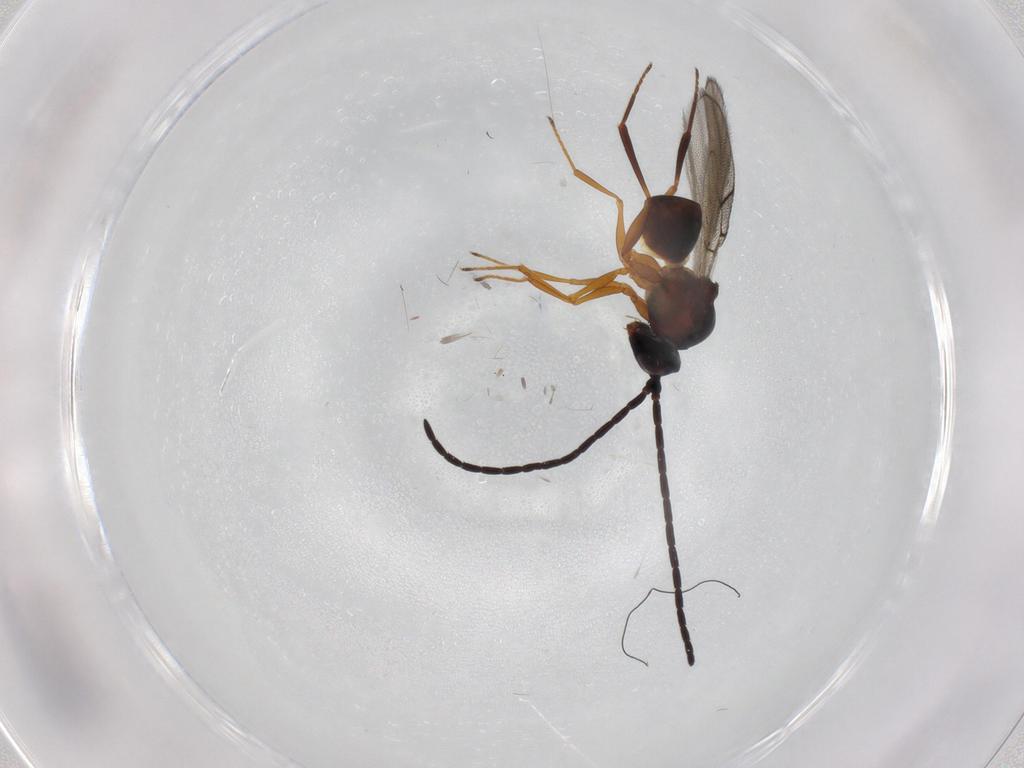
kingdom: Animalia
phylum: Arthropoda
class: Insecta
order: Hymenoptera
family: Figitidae
